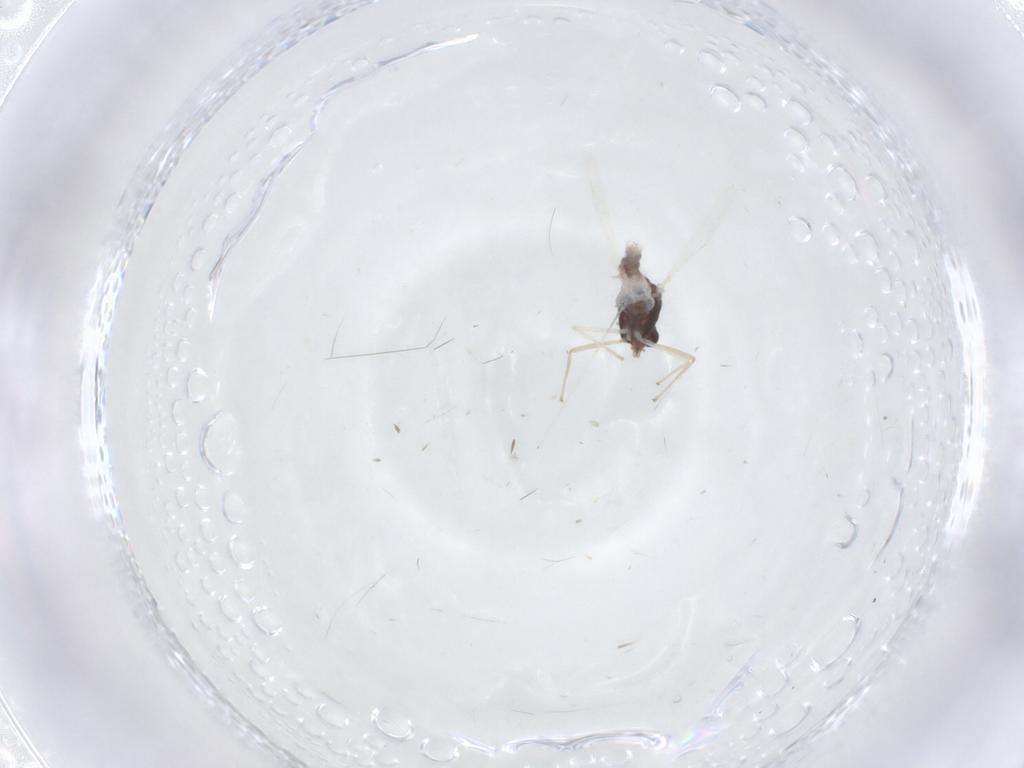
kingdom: Animalia
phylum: Arthropoda
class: Insecta
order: Diptera
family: Chironomidae
